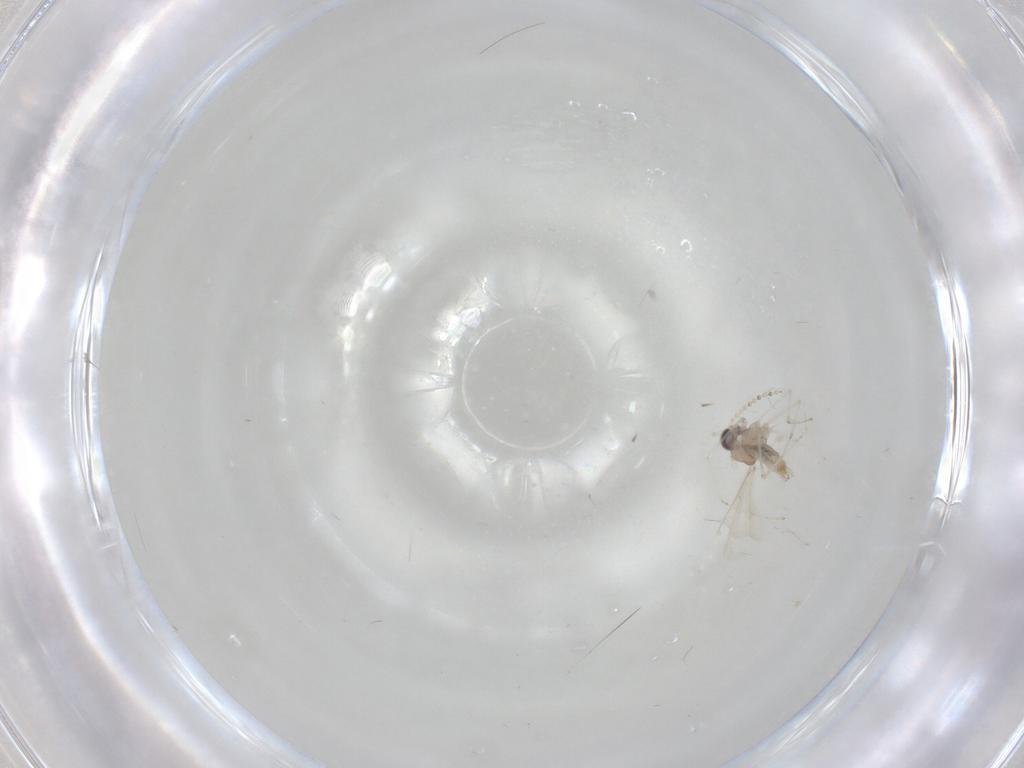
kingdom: Animalia
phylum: Arthropoda
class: Insecta
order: Diptera
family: Cecidomyiidae
